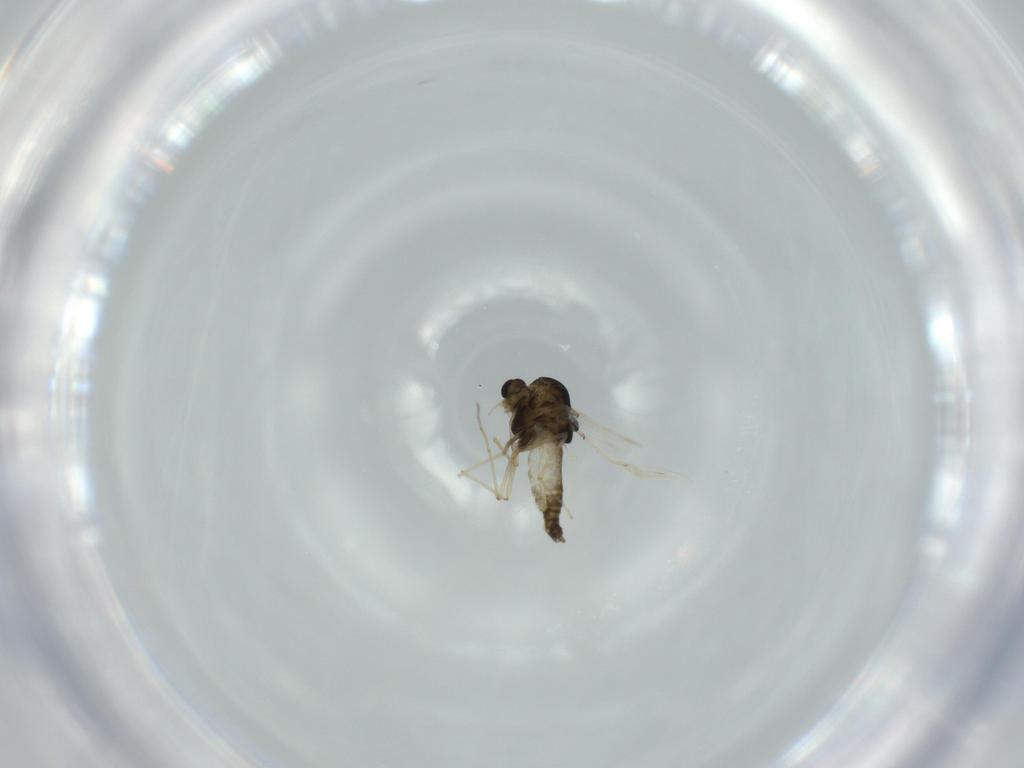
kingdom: Animalia
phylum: Arthropoda
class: Insecta
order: Diptera
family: Chironomidae
